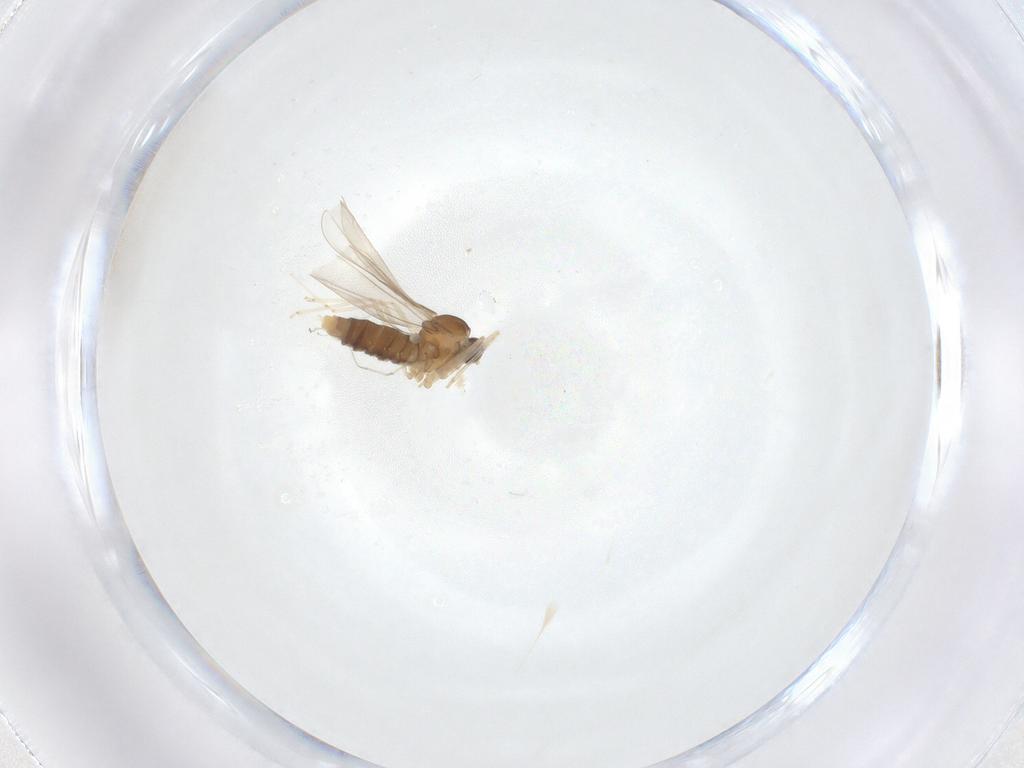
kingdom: Animalia
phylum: Arthropoda
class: Insecta
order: Diptera
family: Cecidomyiidae
